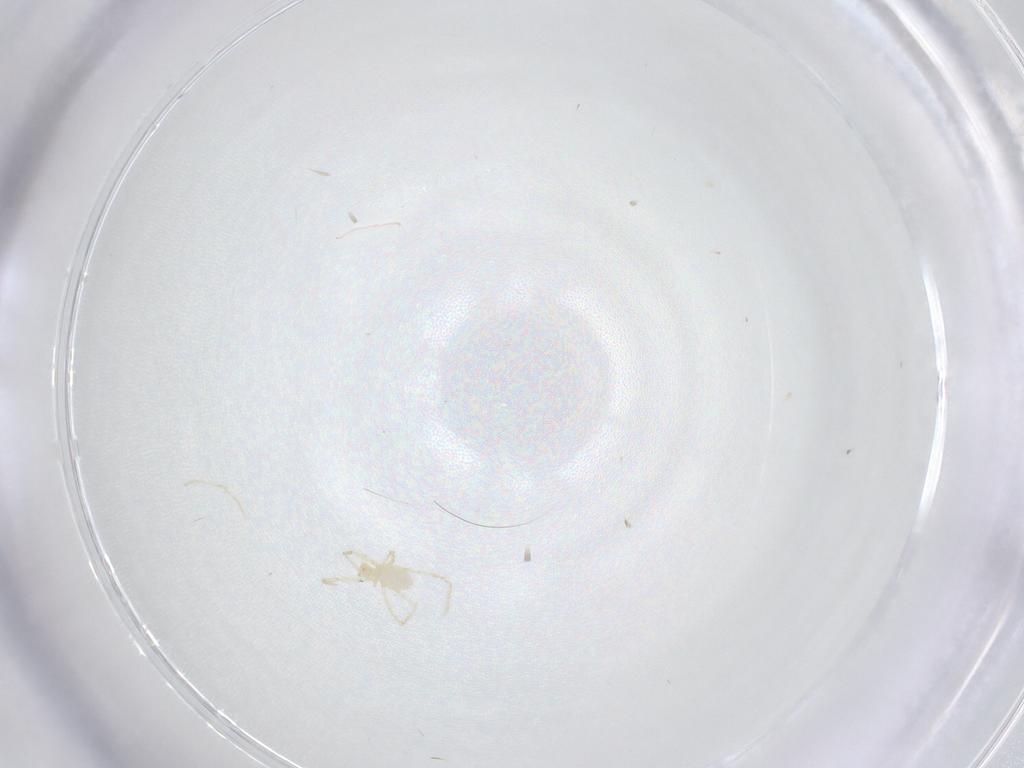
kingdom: Animalia
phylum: Arthropoda
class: Arachnida
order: Trombidiformes
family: Erythraeidae
